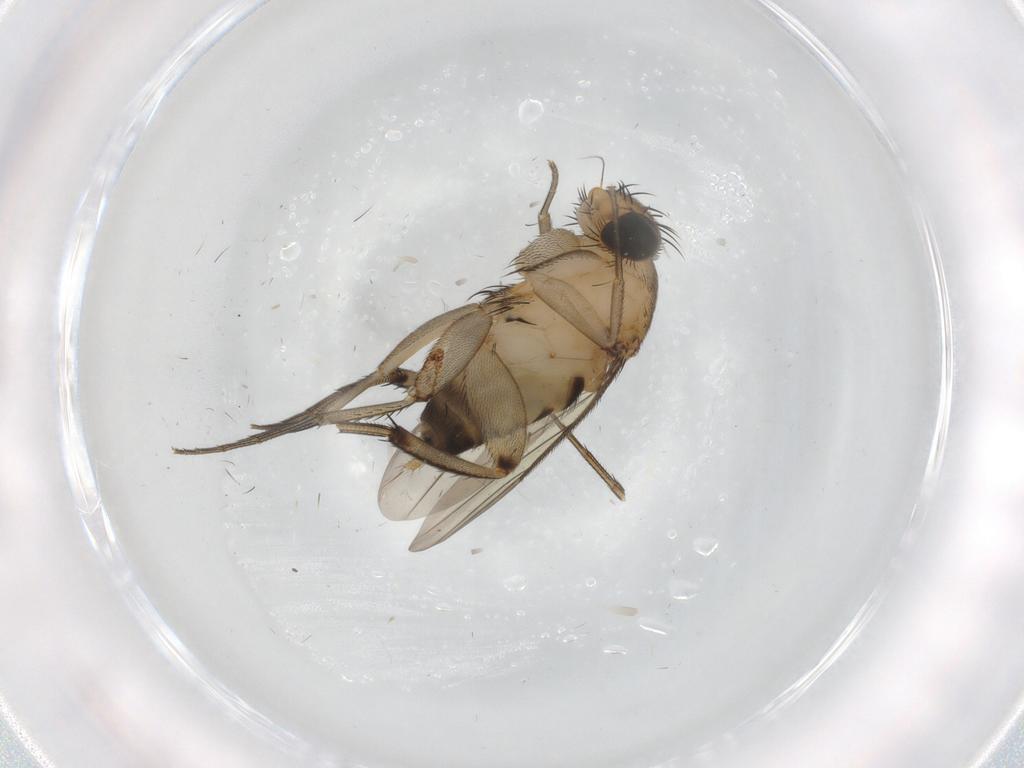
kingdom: Animalia
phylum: Arthropoda
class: Insecta
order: Diptera
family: Phoridae
